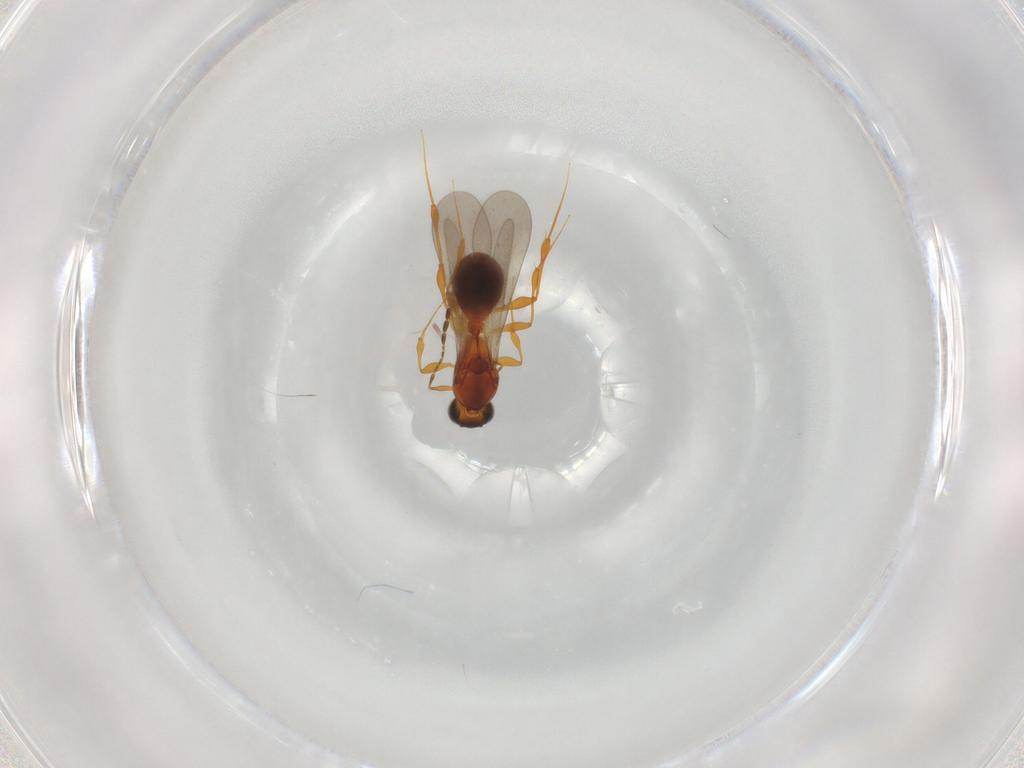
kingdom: Animalia
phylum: Arthropoda
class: Insecta
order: Hymenoptera
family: Platygastridae
